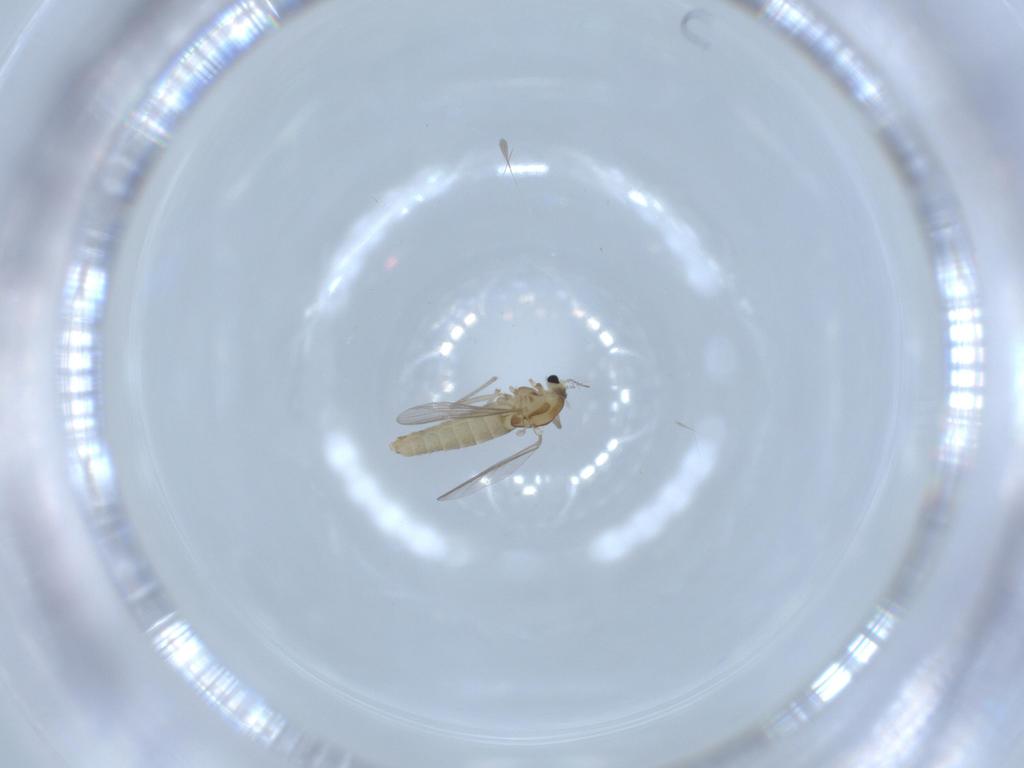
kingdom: Animalia
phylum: Arthropoda
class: Insecta
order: Diptera
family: Chironomidae
